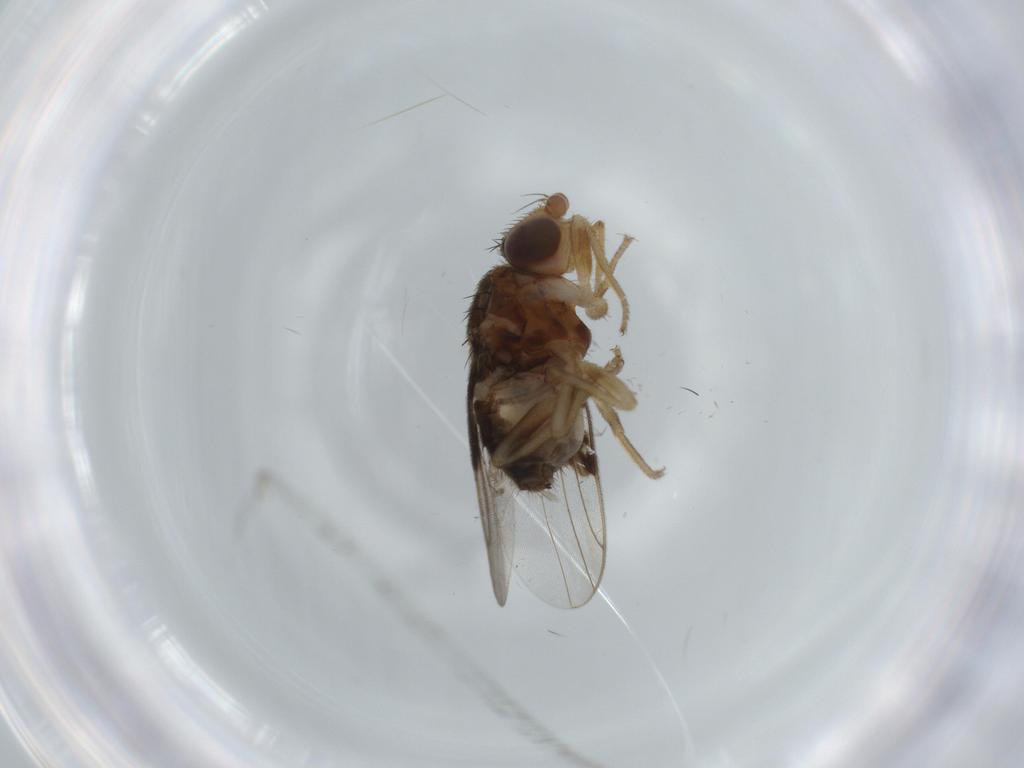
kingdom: Animalia
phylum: Arthropoda
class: Insecta
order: Diptera
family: Chloropidae
